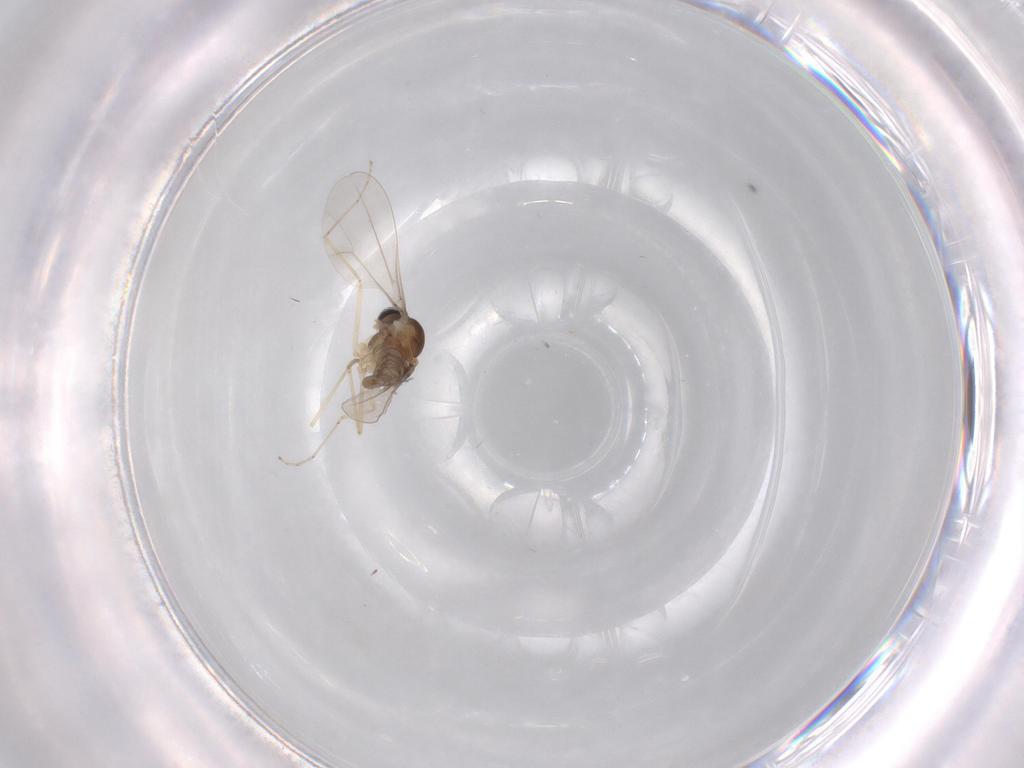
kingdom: Animalia
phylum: Arthropoda
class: Insecta
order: Diptera
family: Cecidomyiidae
